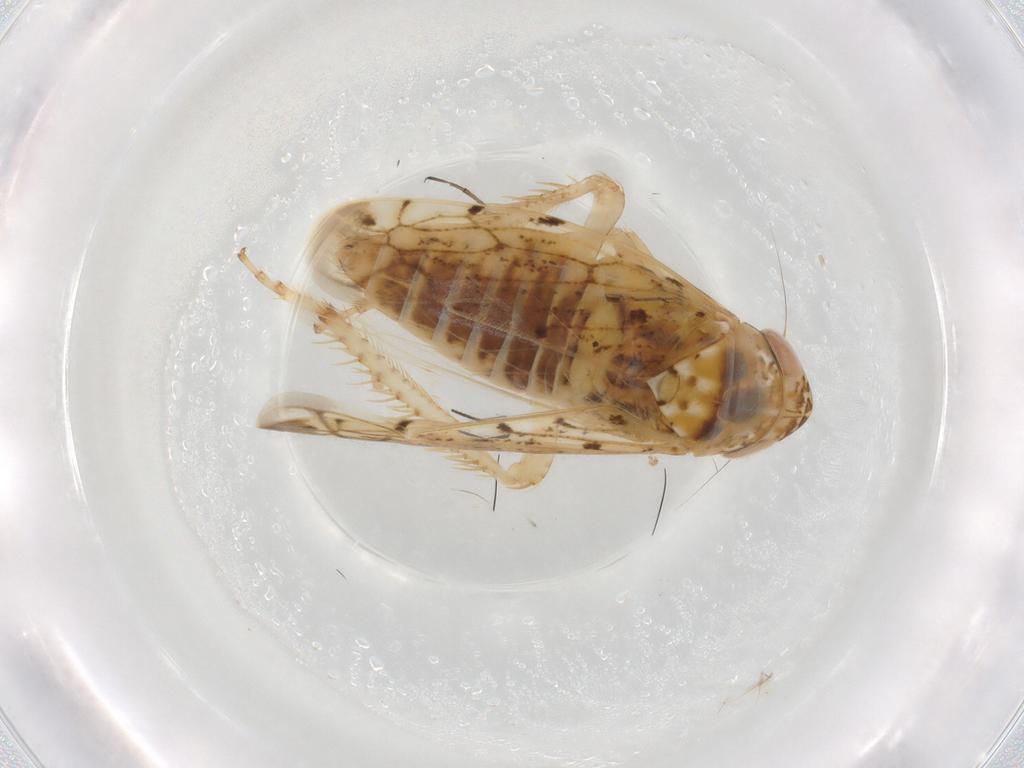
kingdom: Animalia
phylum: Arthropoda
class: Insecta
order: Hemiptera
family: Cicadellidae
